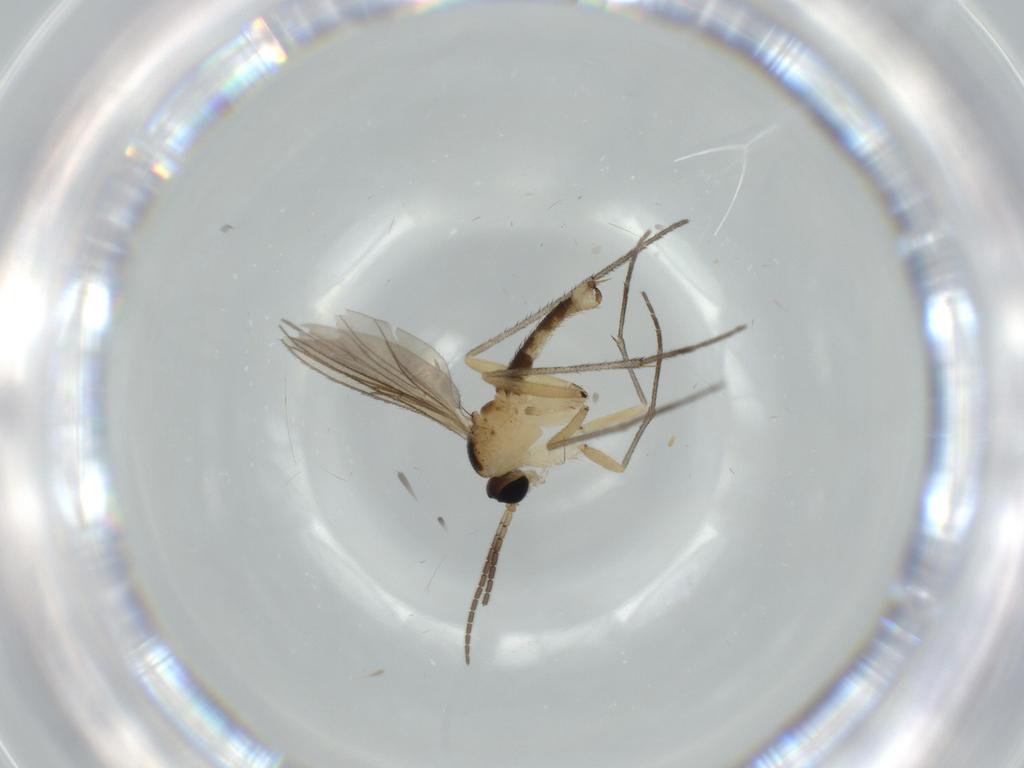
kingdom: Animalia
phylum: Arthropoda
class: Insecta
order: Diptera
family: Sciaridae
